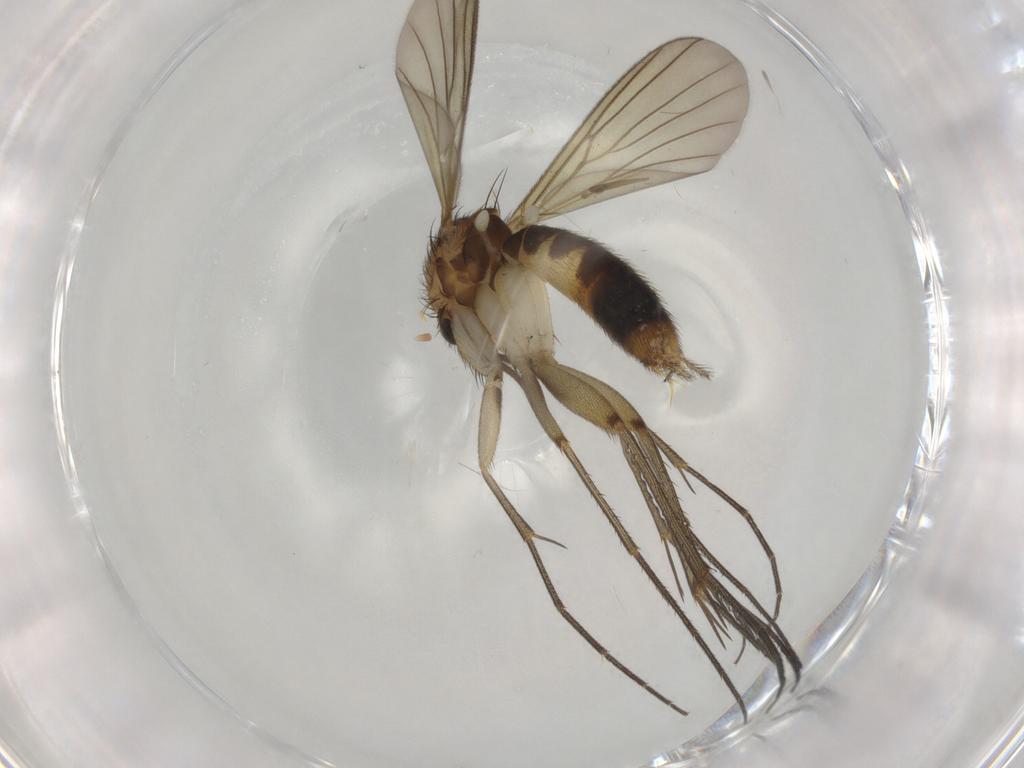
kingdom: Animalia
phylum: Arthropoda
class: Insecta
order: Diptera
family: Mycetophilidae
